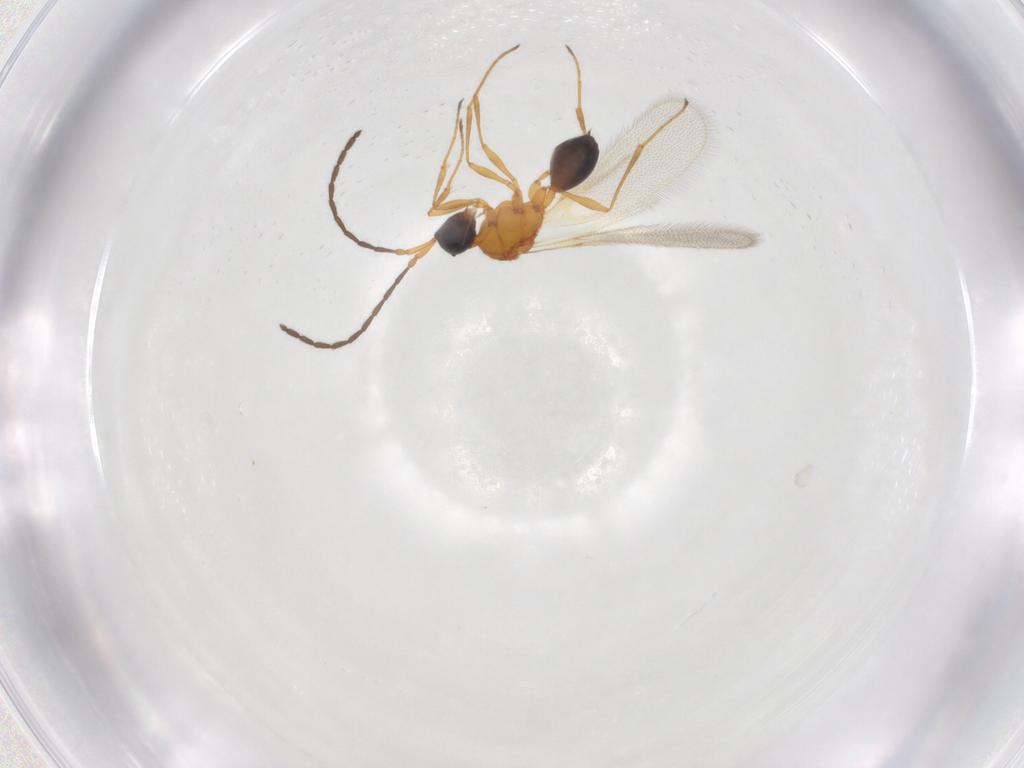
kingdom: Animalia
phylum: Arthropoda
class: Insecta
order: Hymenoptera
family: Diapriidae
